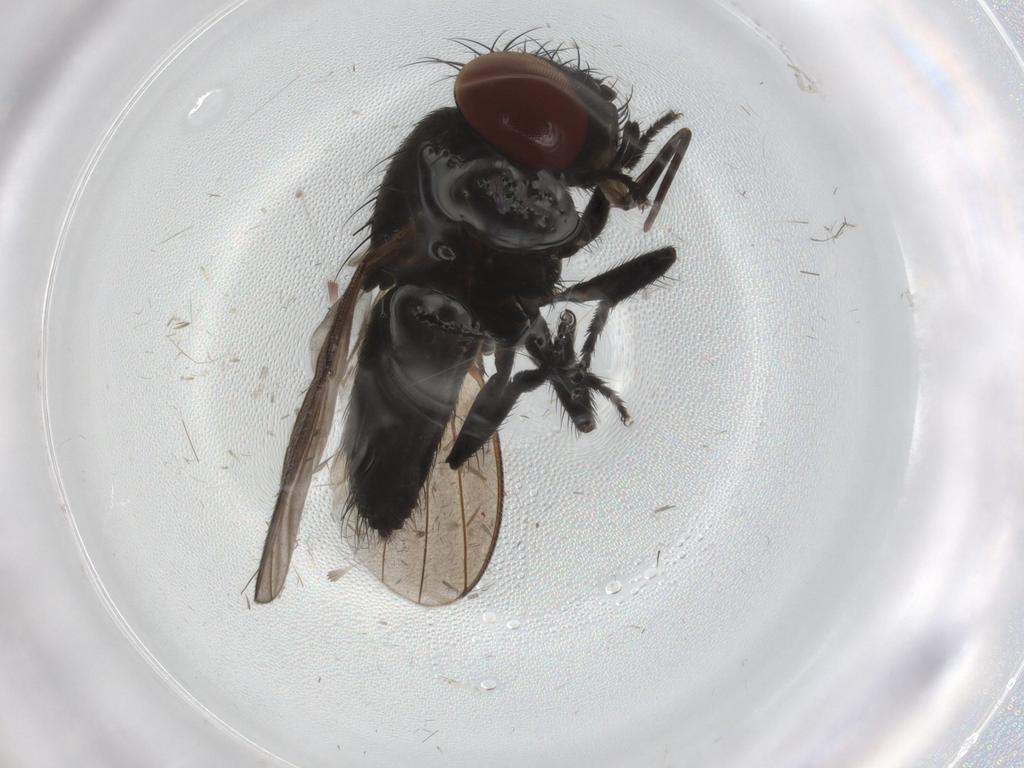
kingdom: Animalia
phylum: Arthropoda
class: Insecta
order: Diptera
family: Milichiidae
